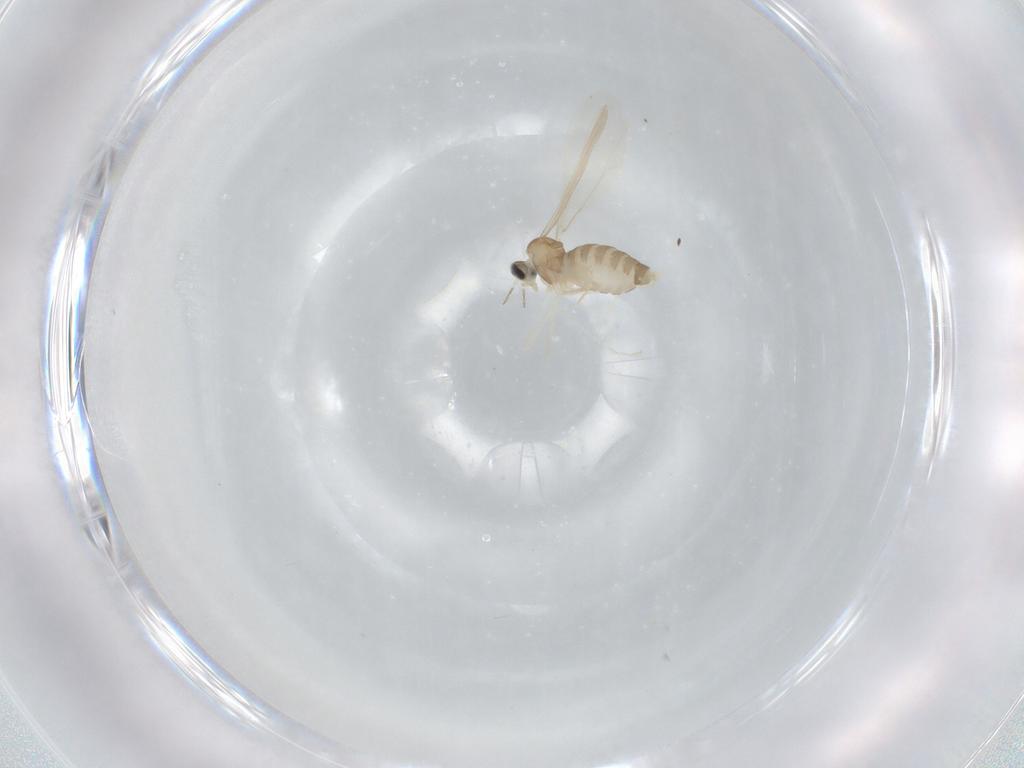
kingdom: Animalia
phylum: Arthropoda
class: Insecta
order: Diptera
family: Cecidomyiidae
